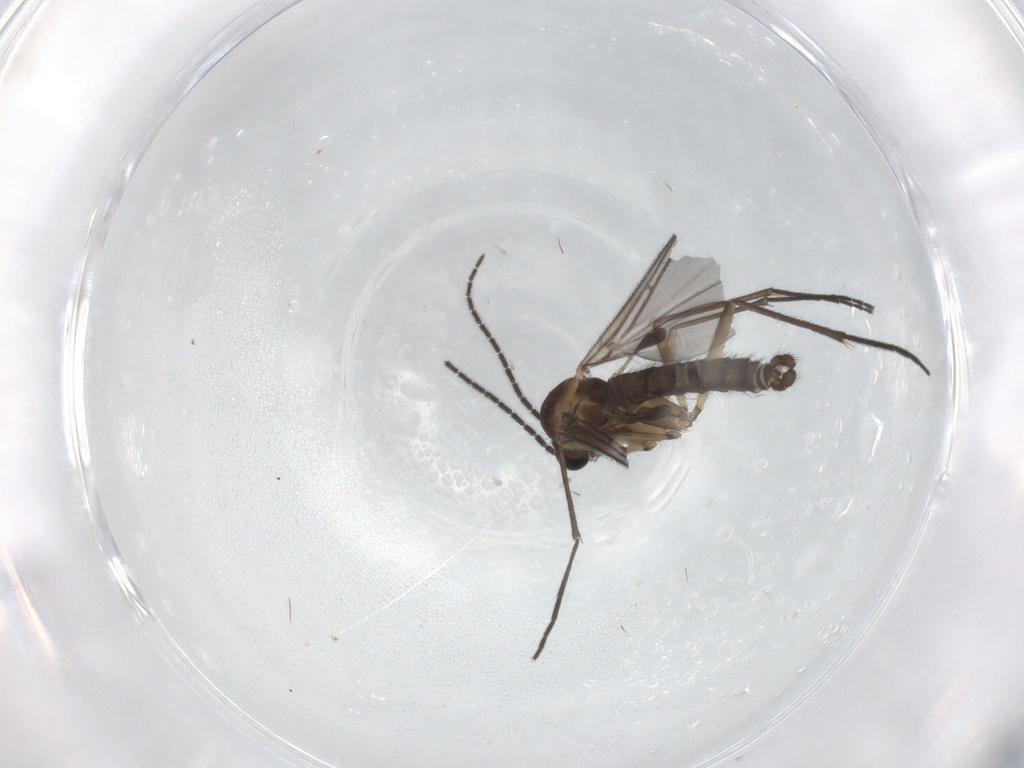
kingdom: Animalia
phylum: Arthropoda
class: Insecta
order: Diptera
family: Sciaridae
